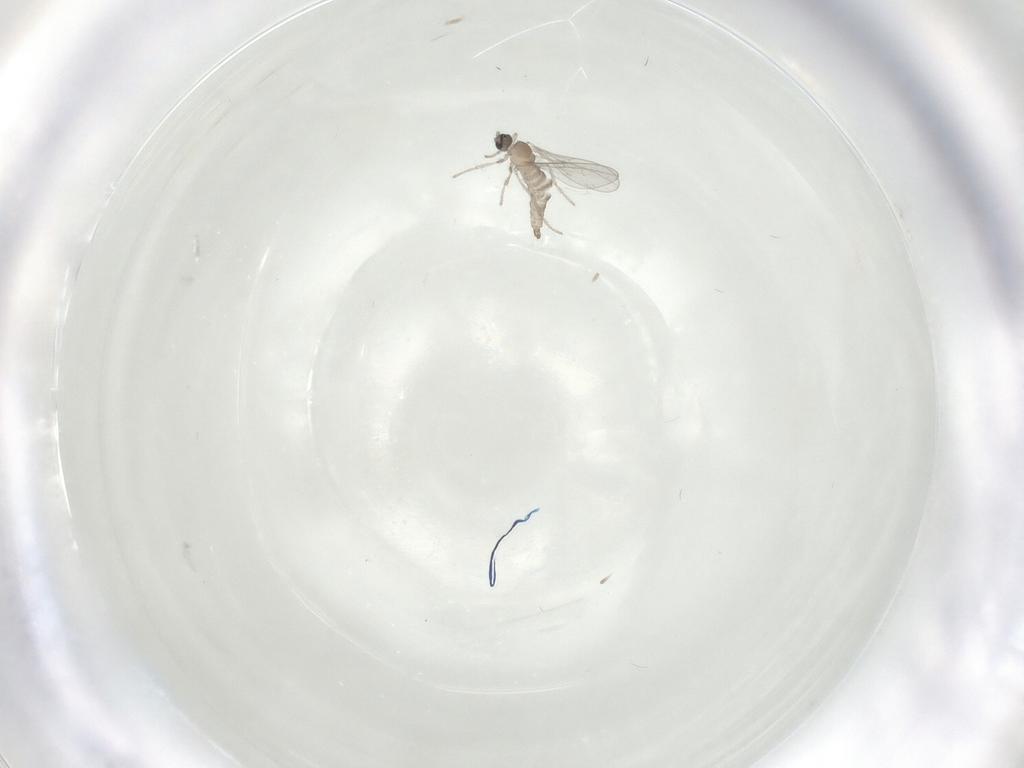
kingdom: Animalia
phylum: Arthropoda
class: Insecta
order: Diptera
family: Cecidomyiidae
